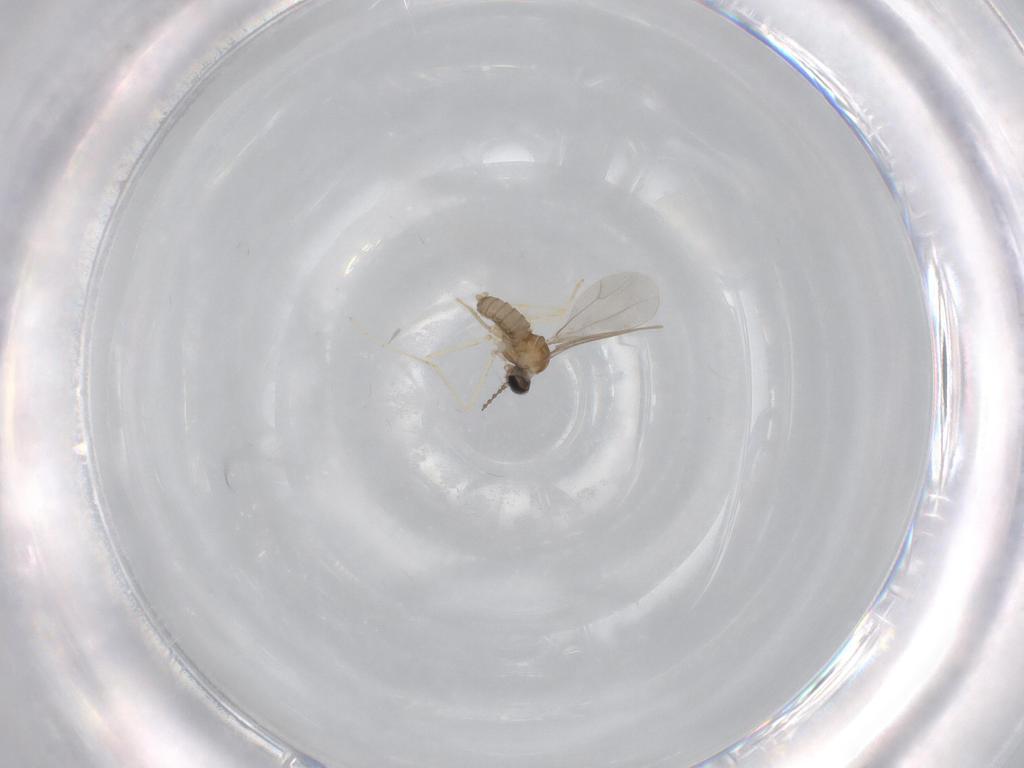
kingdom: Animalia
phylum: Arthropoda
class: Insecta
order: Diptera
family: Cecidomyiidae
